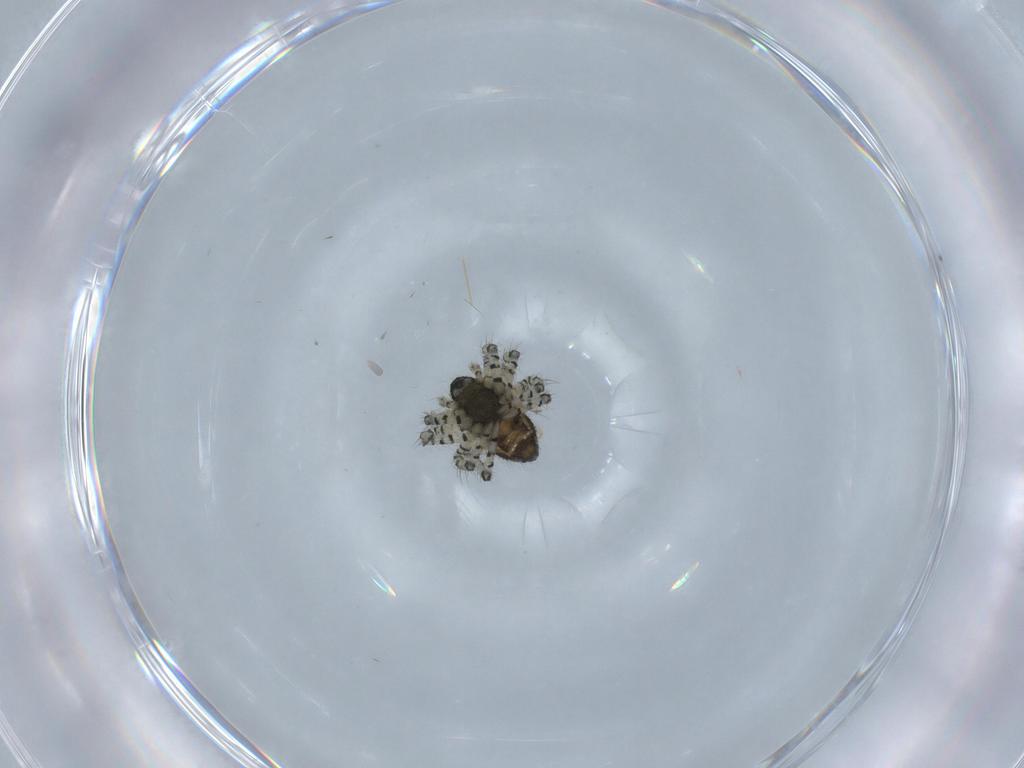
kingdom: Animalia
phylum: Arthropoda
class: Arachnida
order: Araneae
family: Theridiidae
